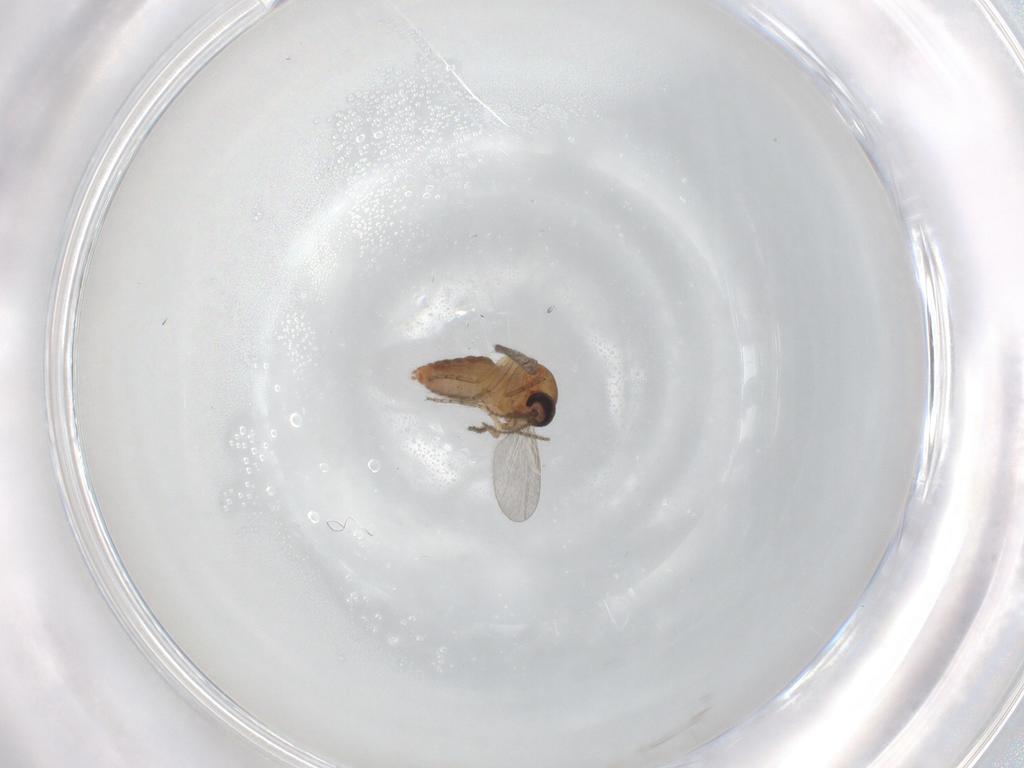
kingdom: Animalia
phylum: Arthropoda
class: Insecta
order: Diptera
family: Ceratopogonidae
